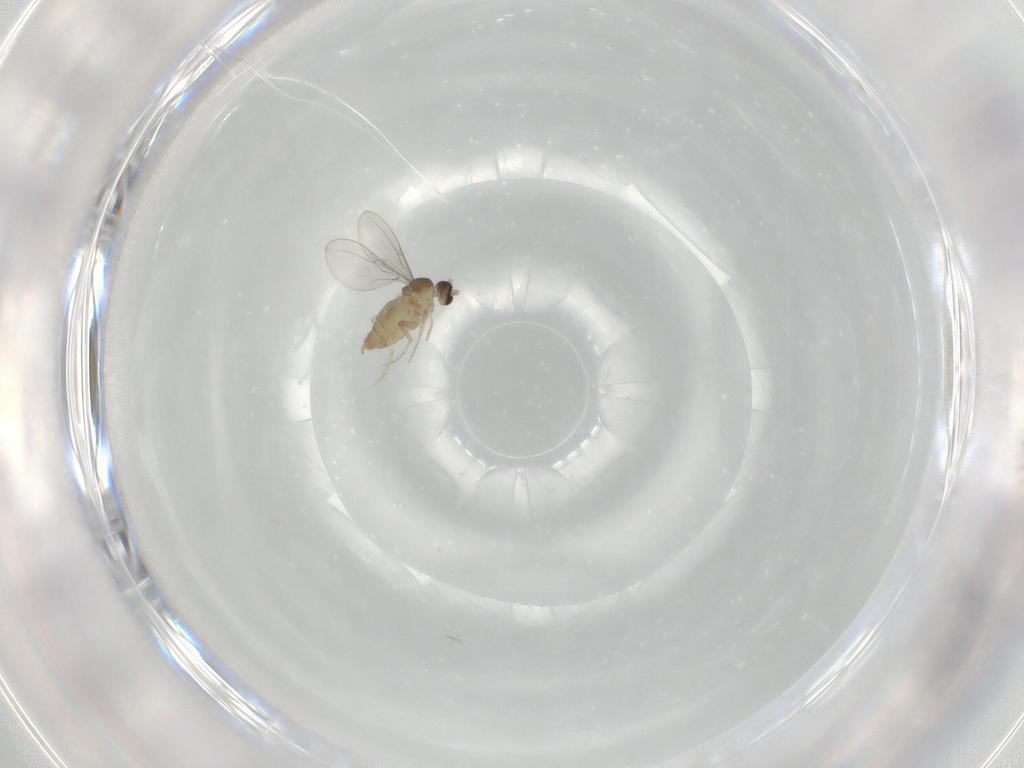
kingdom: Animalia
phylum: Arthropoda
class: Insecta
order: Diptera
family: Cecidomyiidae
